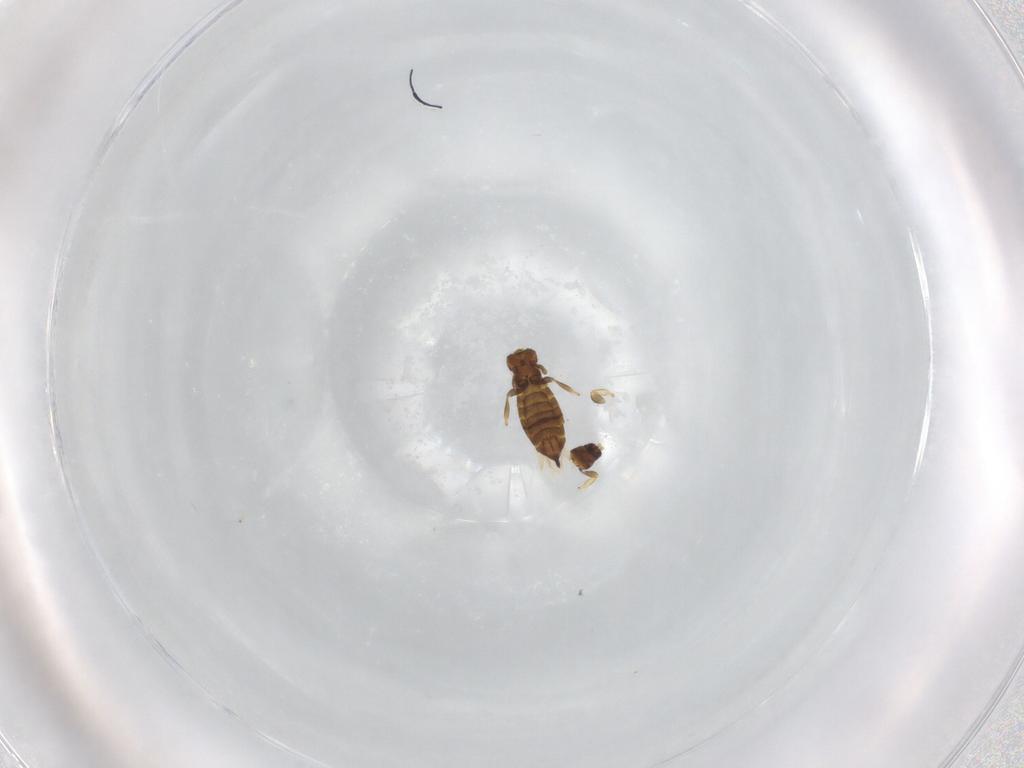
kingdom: Animalia
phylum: Arthropoda
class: Insecta
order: Thysanoptera
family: Thripidae
